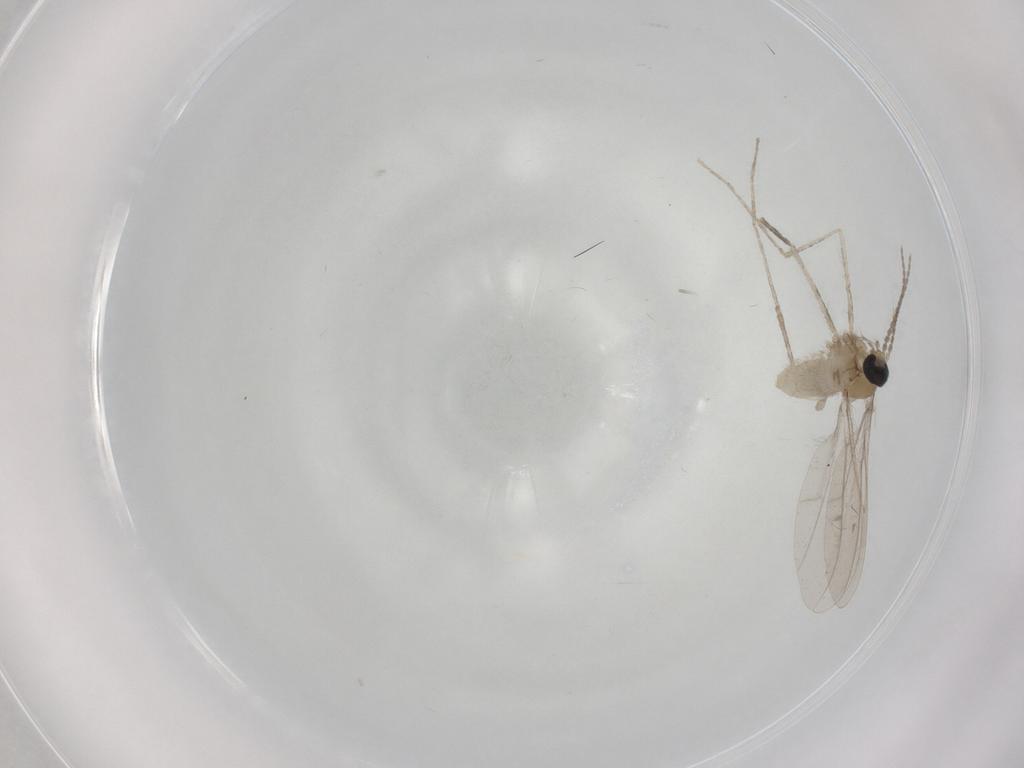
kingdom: Animalia
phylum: Arthropoda
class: Insecta
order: Diptera
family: Cecidomyiidae
